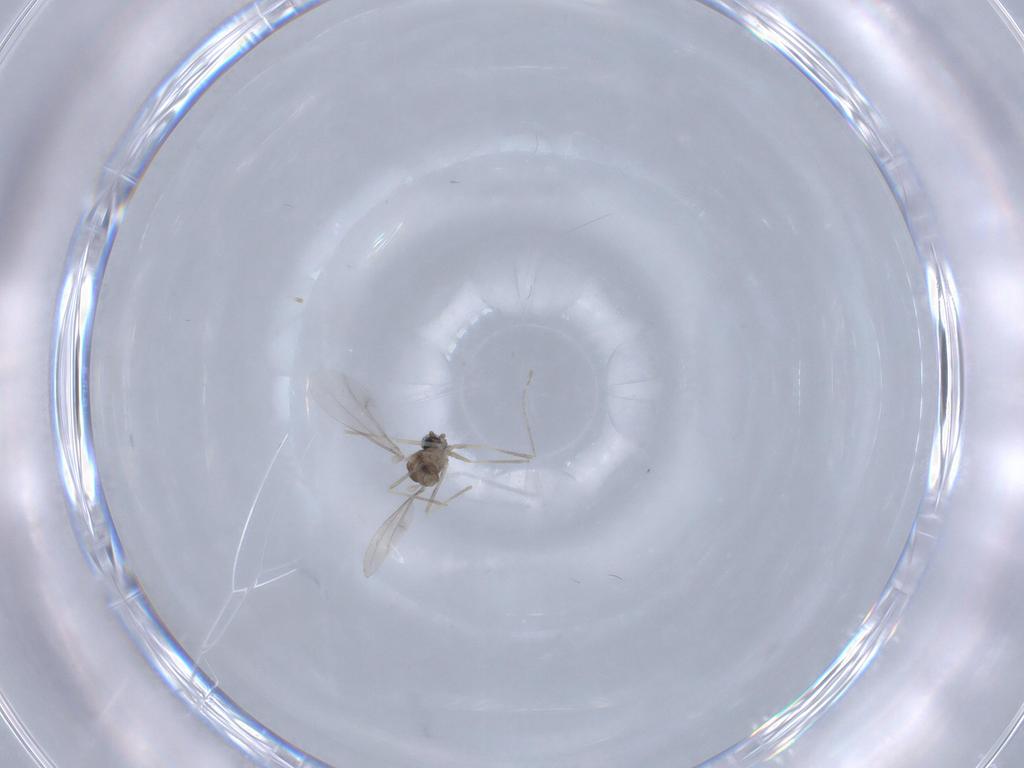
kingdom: Animalia
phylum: Arthropoda
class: Insecta
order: Diptera
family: Cecidomyiidae
